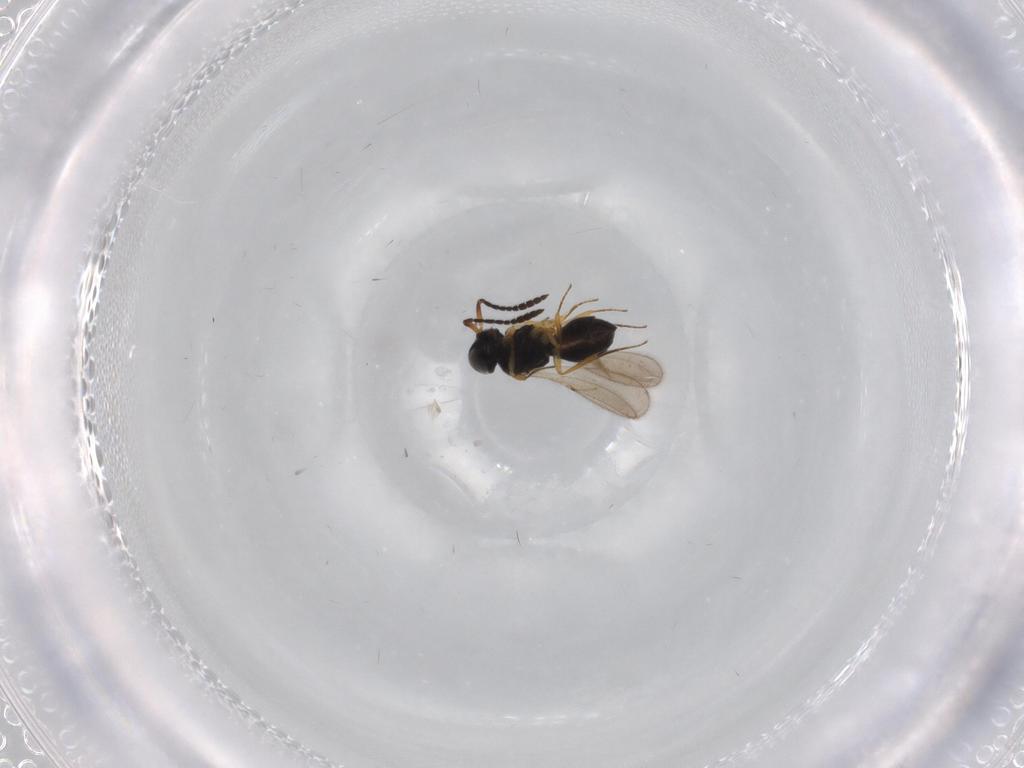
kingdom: Animalia
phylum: Arthropoda
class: Insecta
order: Hymenoptera
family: Scelionidae
